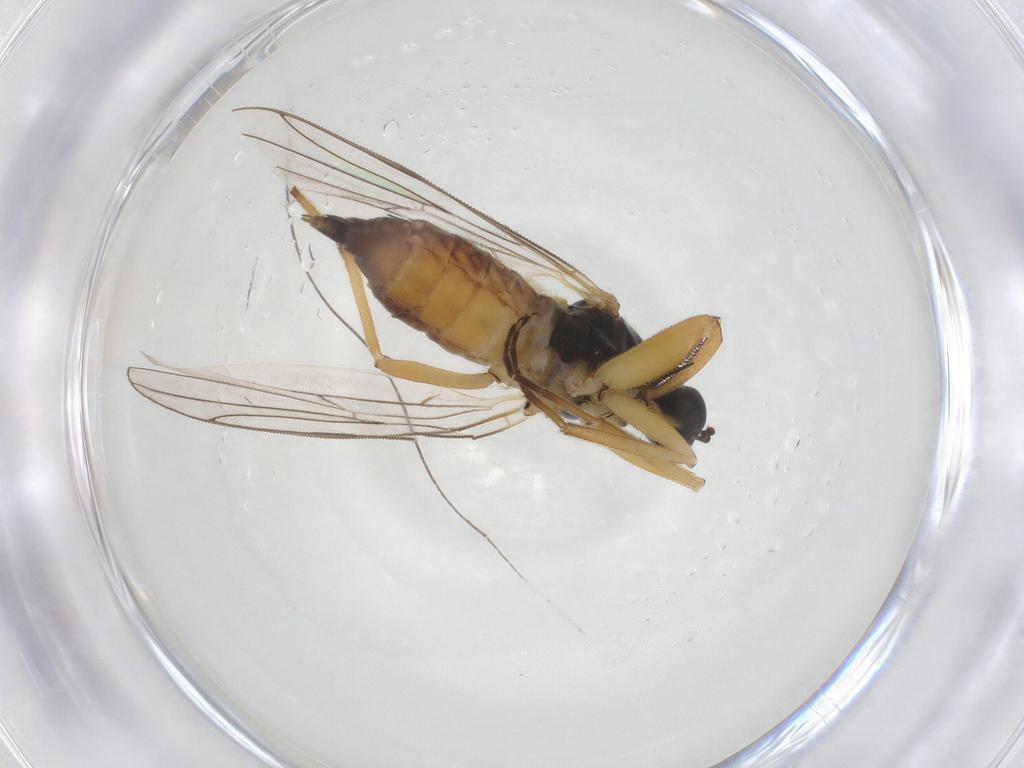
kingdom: Animalia
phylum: Arthropoda
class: Insecta
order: Diptera
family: Hybotidae
